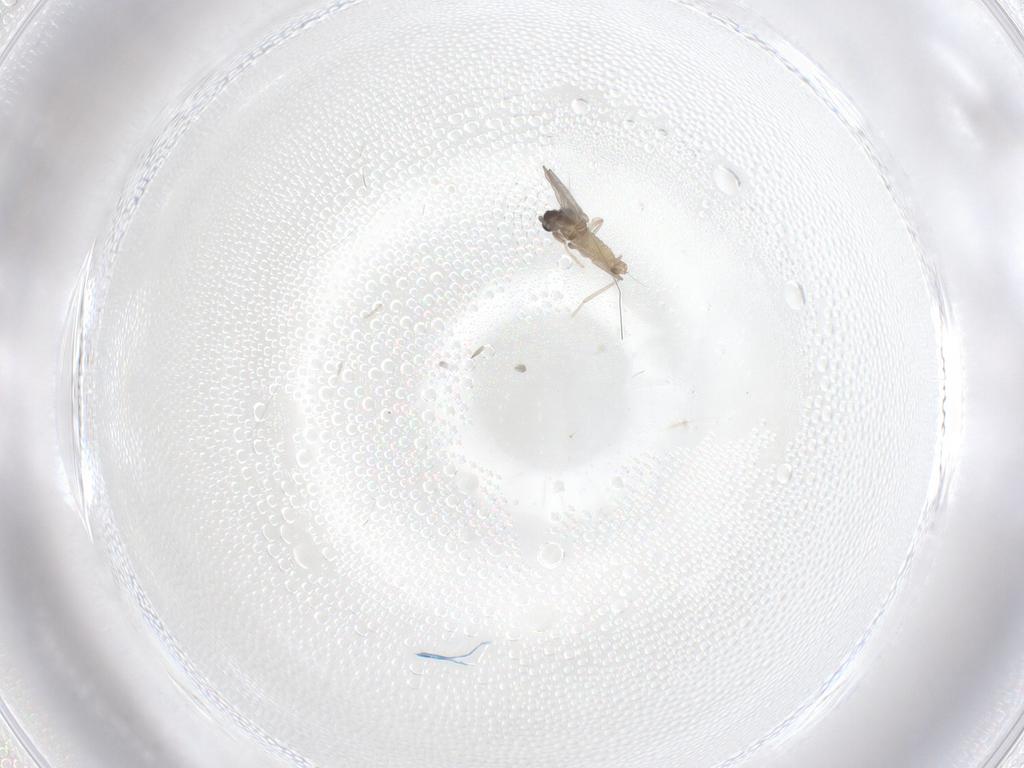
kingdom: Animalia
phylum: Arthropoda
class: Insecta
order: Diptera
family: Cecidomyiidae
